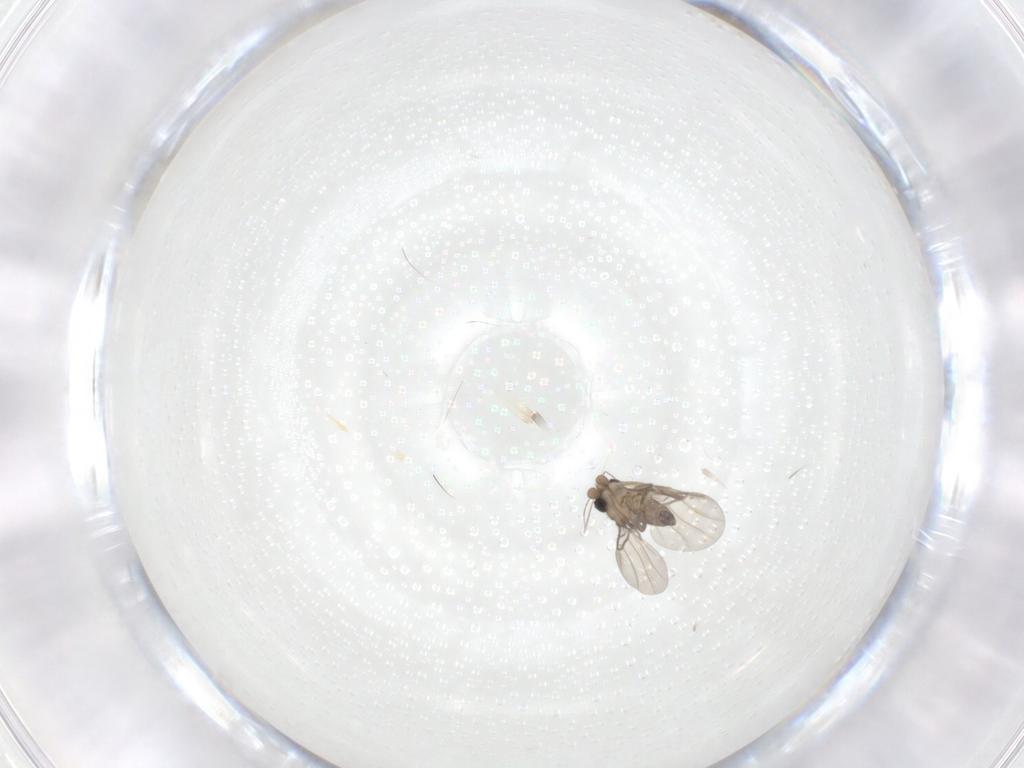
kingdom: Animalia
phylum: Arthropoda
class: Insecta
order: Diptera
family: Phoridae
